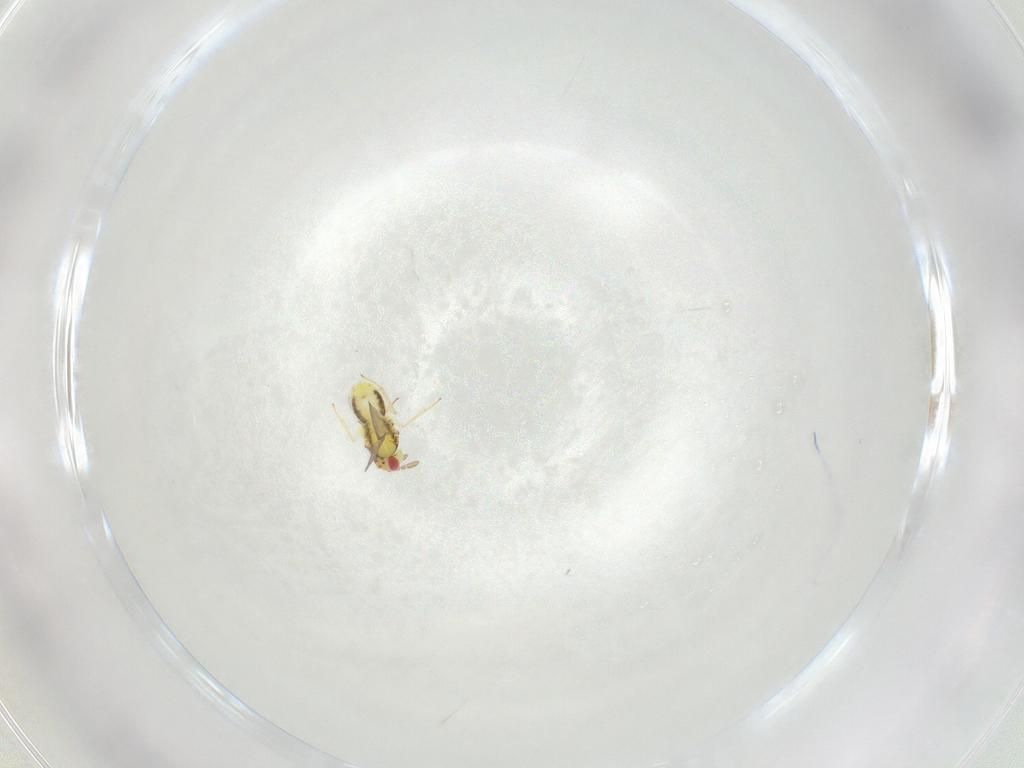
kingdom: Animalia
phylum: Arthropoda
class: Insecta
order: Hymenoptera
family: Aphelinidae
